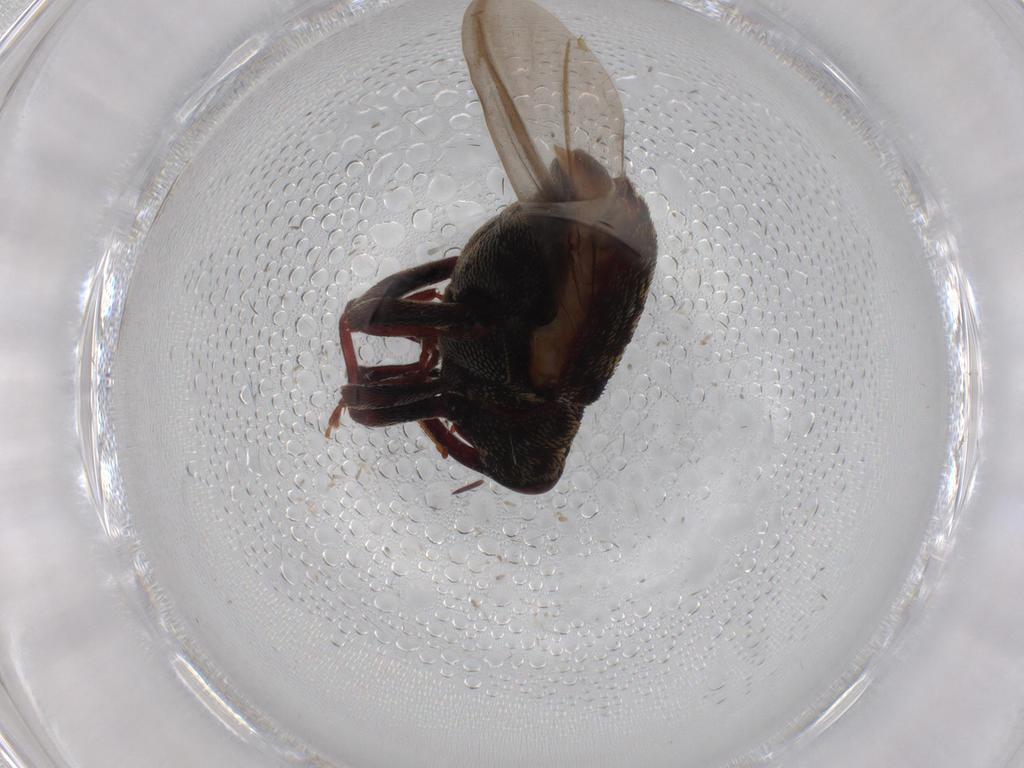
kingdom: Animalia
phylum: Arthropoda
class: Insecta
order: Coleoptera
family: Curculionidae
